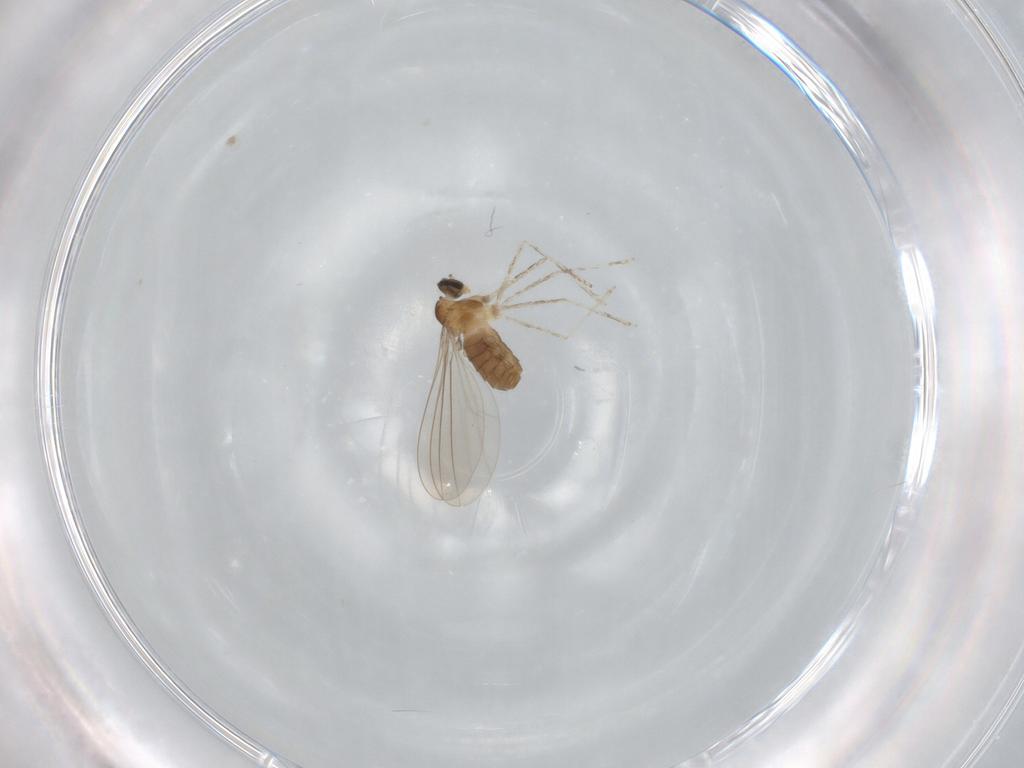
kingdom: Animalia
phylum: Arthropoda
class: Insecta
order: Diptera
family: Cecidomyiidae
